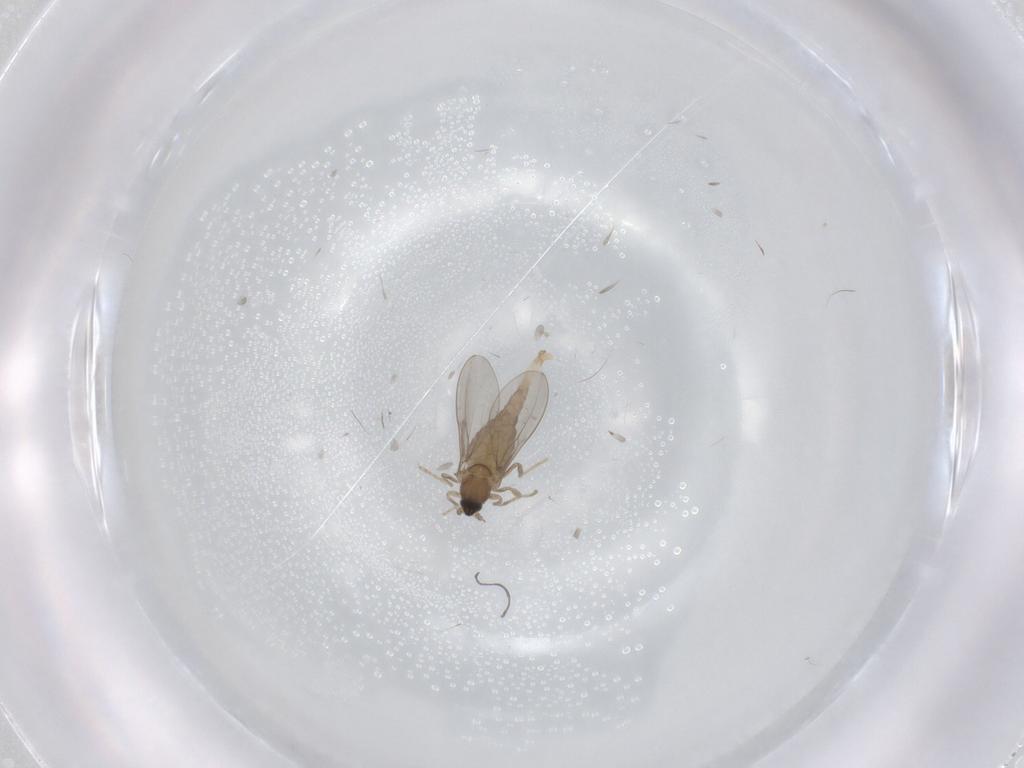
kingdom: Animalia
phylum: Arthropoda
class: Insecta
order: Diptera
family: Cecidomyiidae
